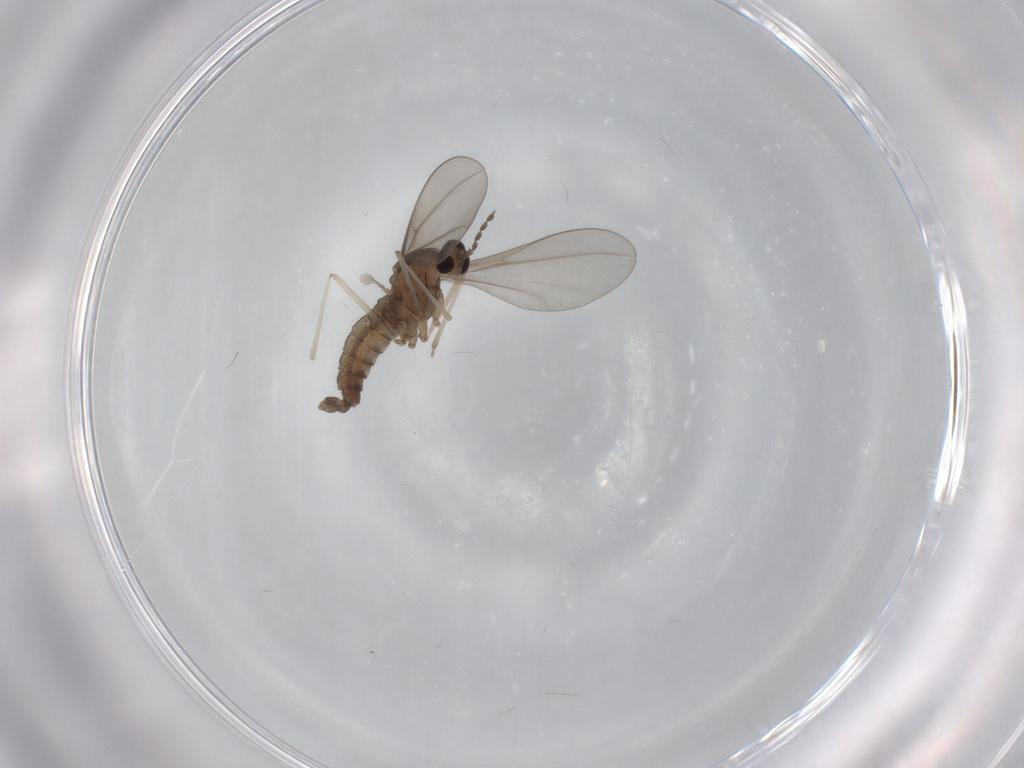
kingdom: Animalia
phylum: Arthropoda
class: Insecta
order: Diptera
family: Cecidomyiidae
